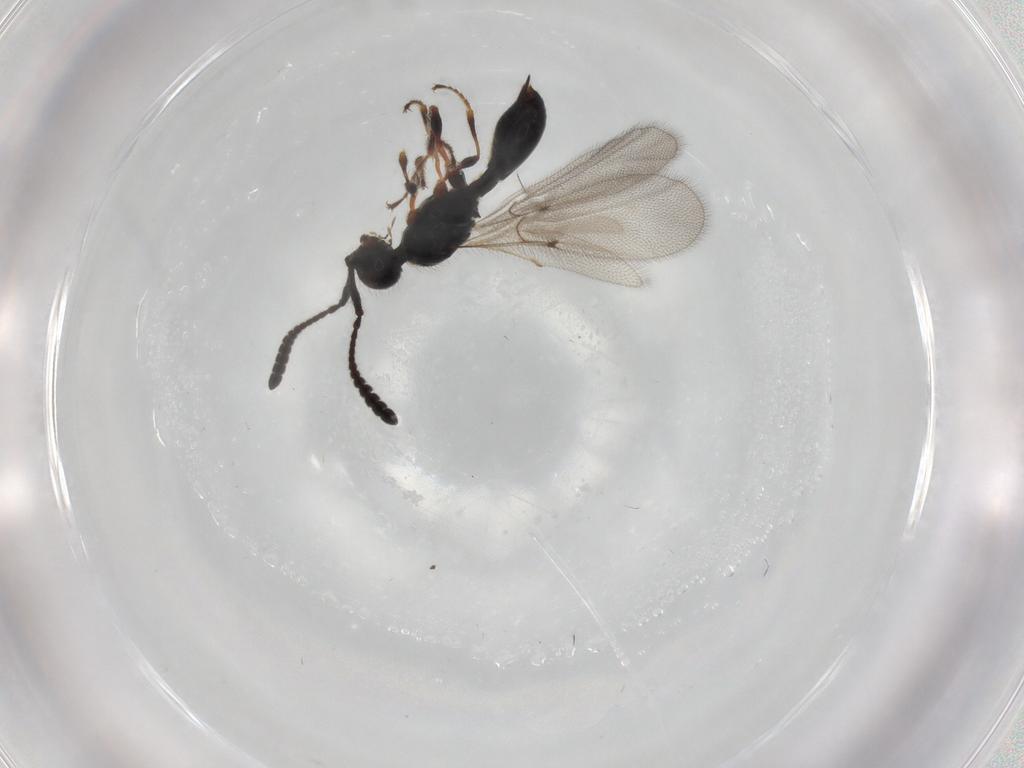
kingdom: Animalia
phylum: Arthropoda
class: Insecta
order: Hymenoptera
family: Diapriidae
